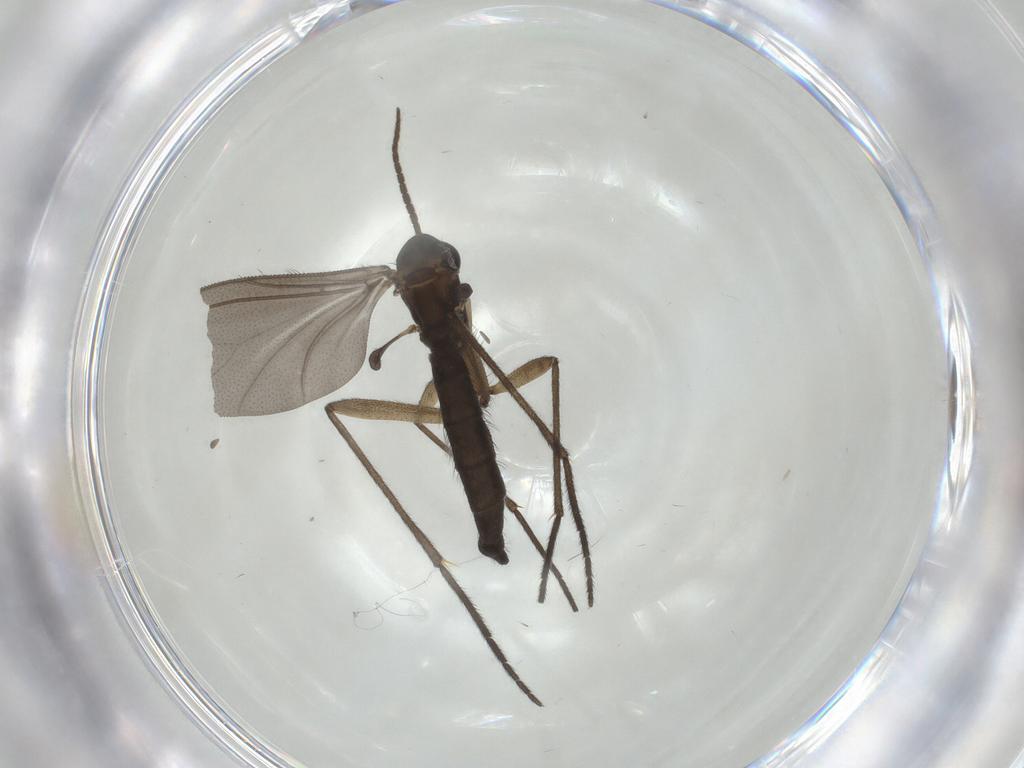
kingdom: Animalia
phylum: Arthropoda
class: Insecta
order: Diptera
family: Sciaridae
